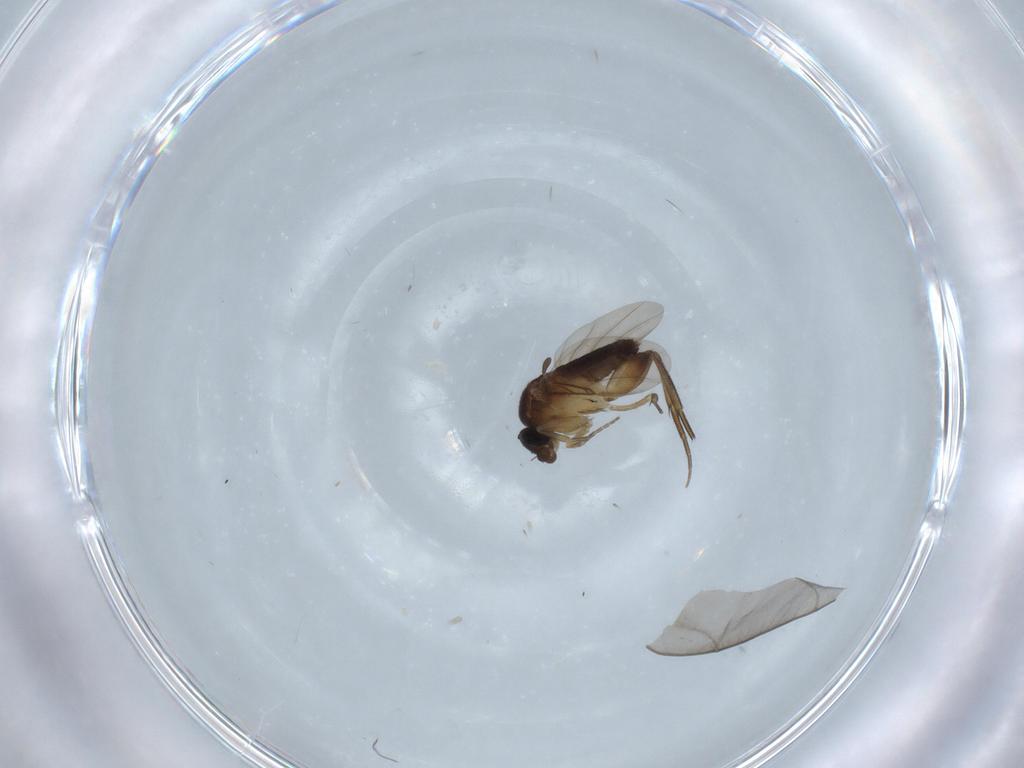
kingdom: Animalia
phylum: Arthropoda
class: Insecta
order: Diptera
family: Phoridae
